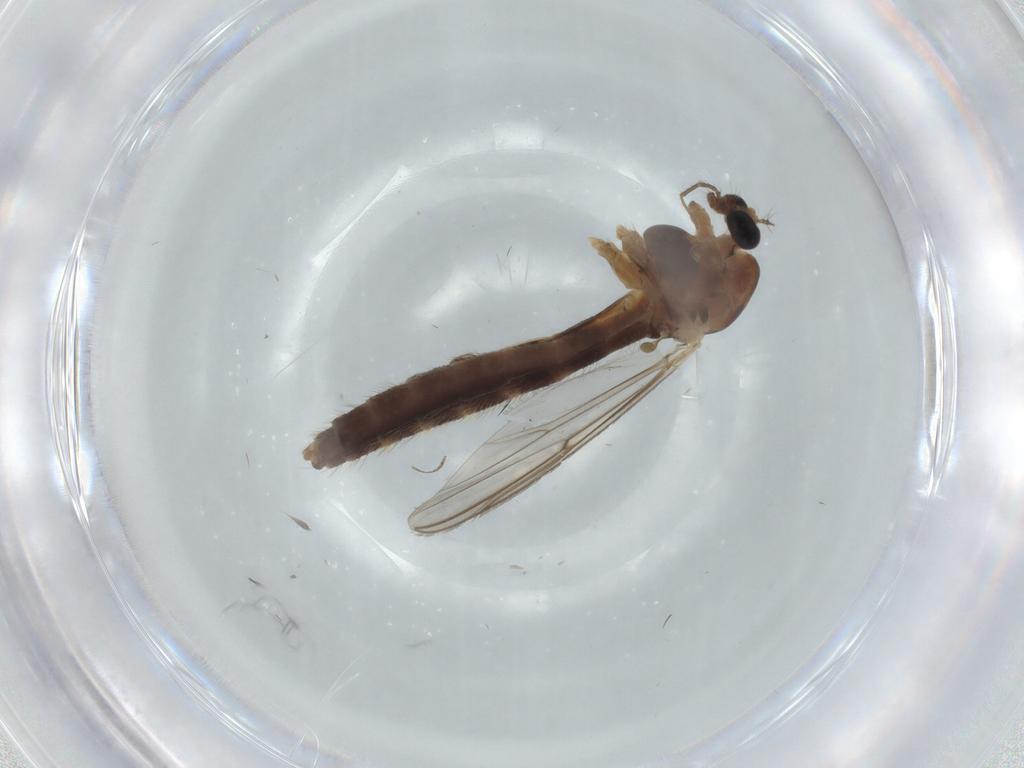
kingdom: Animalia
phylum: Arthropoda
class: Insecta
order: Diptera
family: Chironomidae
